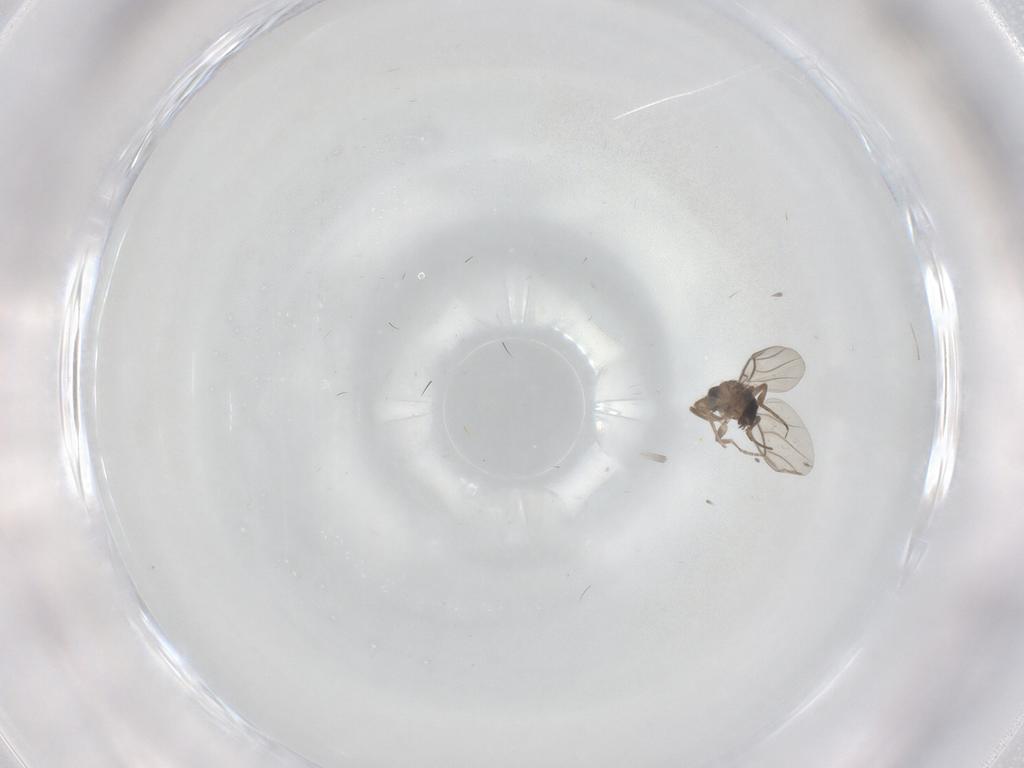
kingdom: Animalia
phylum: Arthropoda
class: Insecta
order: Diptera
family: Phoridae
